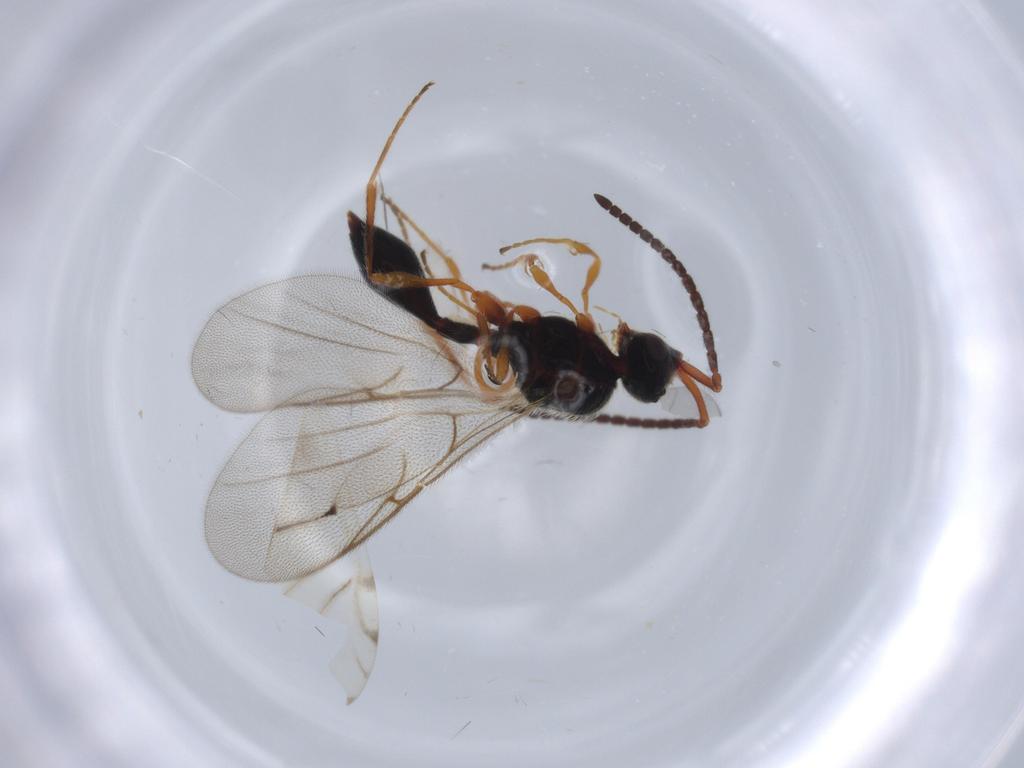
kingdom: Animalia
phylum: Arthropoda
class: Insecta
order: Hymenoptera
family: Diapriidae
